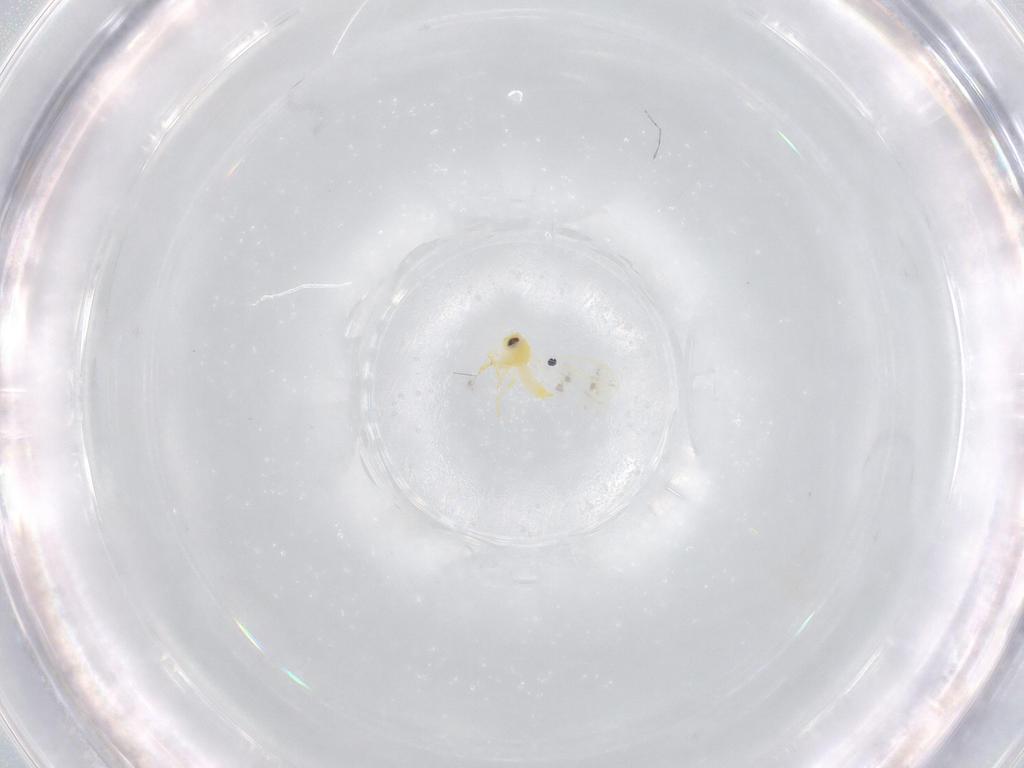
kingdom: Animalia
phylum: Arthropoda
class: Insecta
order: Hemiptera
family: Aleyrodidae
